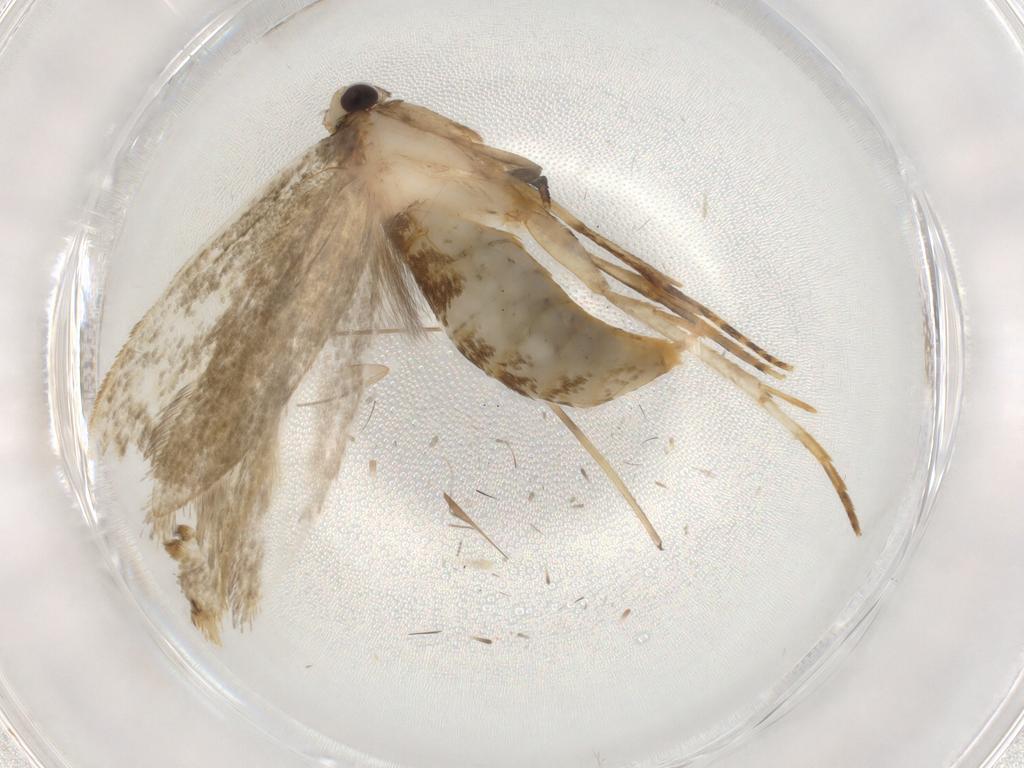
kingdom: Animalia
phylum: Arthropoda
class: Insecta
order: Lepidoptera
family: Tineidae
